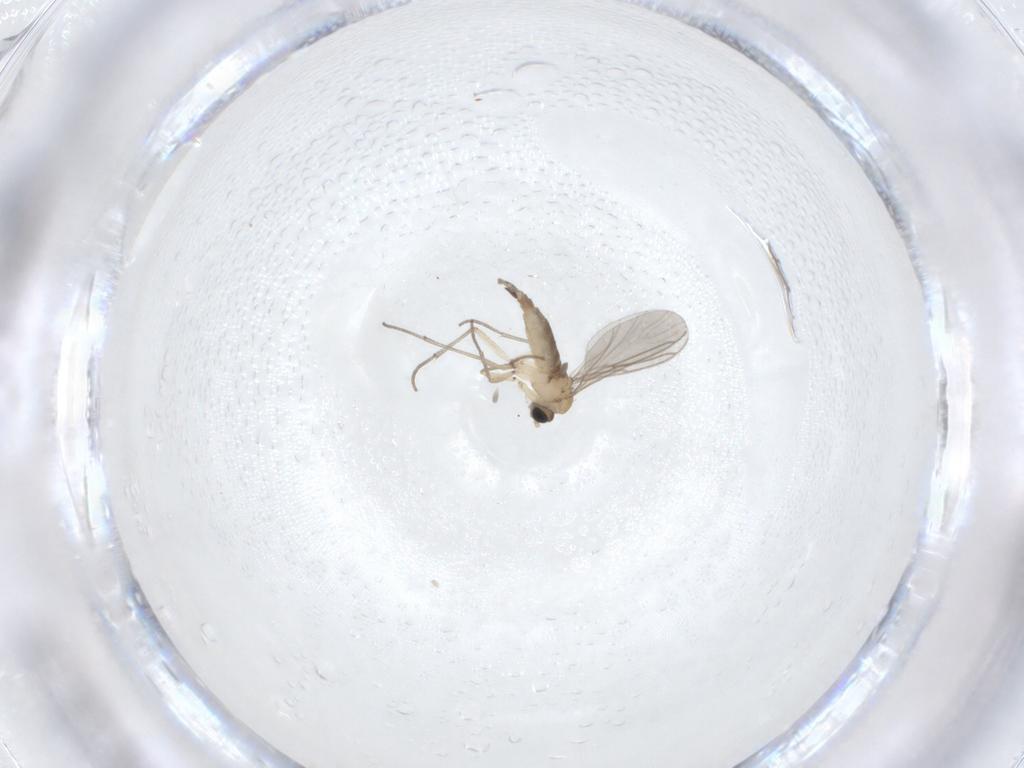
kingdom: Animalia
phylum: Arthropoda
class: Insecta
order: Diptera
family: Sciaridae
